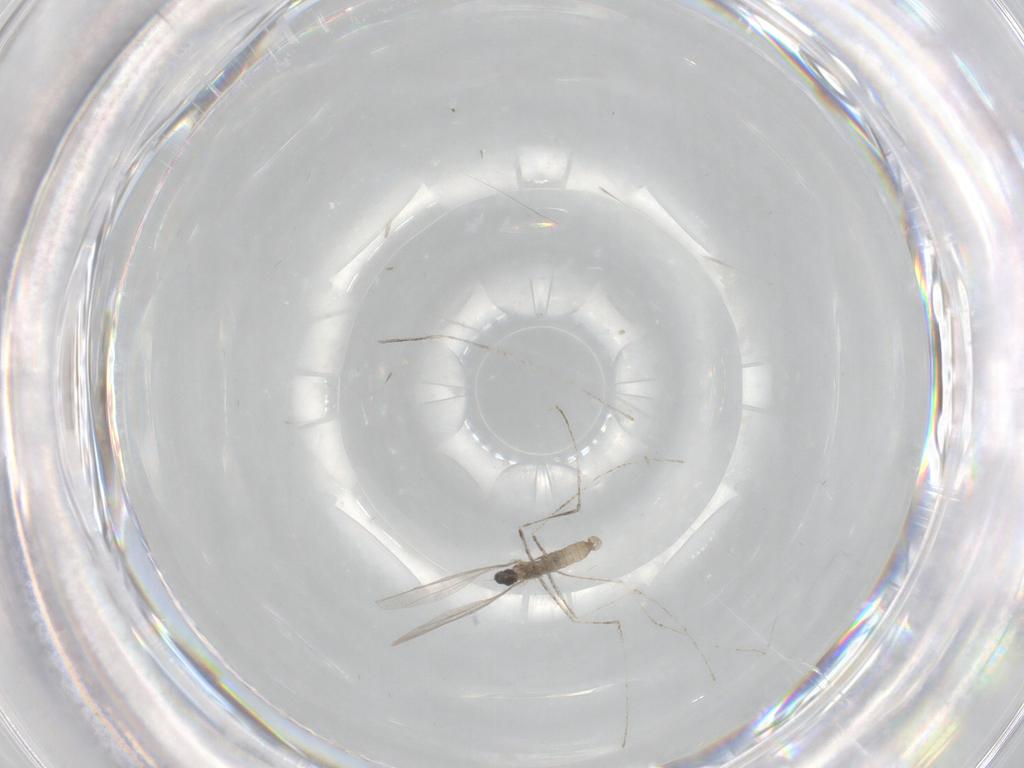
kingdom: Animalia
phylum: Arthropoda
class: Insecta
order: Diptera
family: Cecidomyiidae
